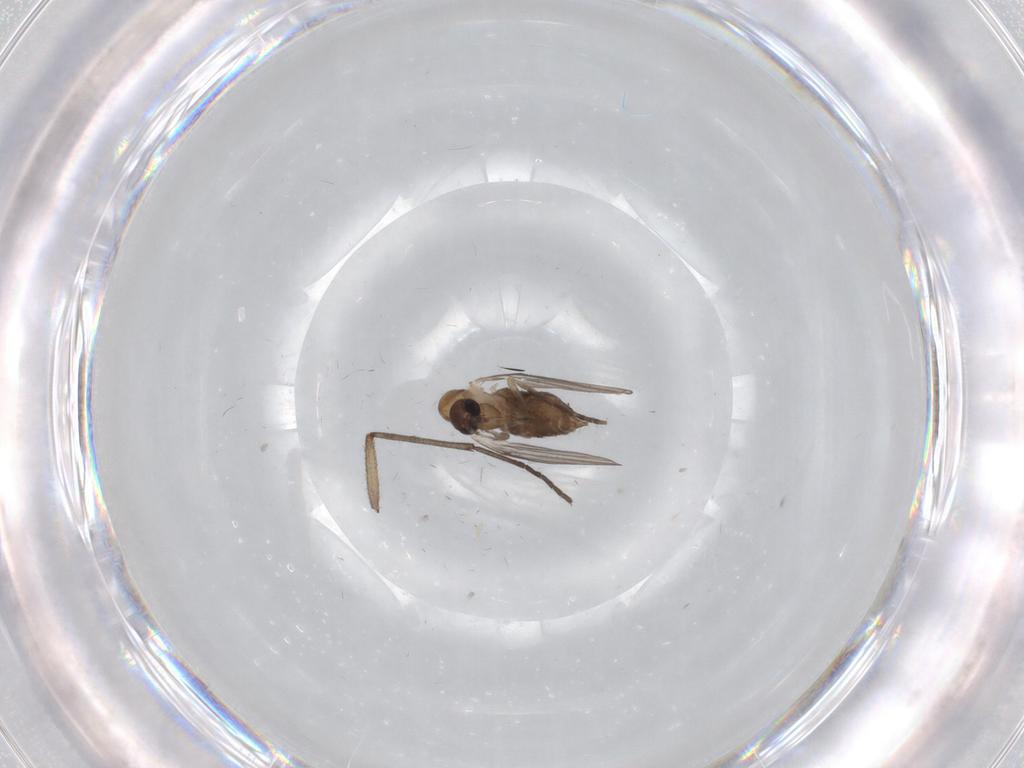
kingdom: Animalia
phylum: Arthropoda
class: Insecta
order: Diptera
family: Sciaridae
